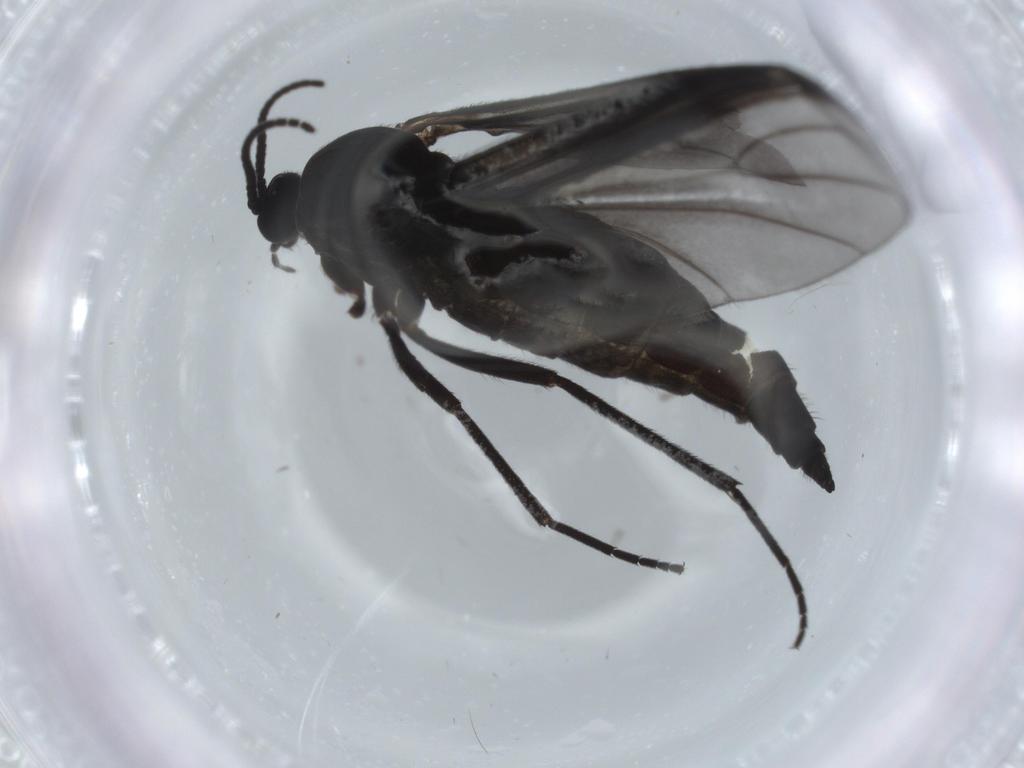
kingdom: Animalia
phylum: Arthropoda
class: Insecta
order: Diptera
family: Sciaridae
